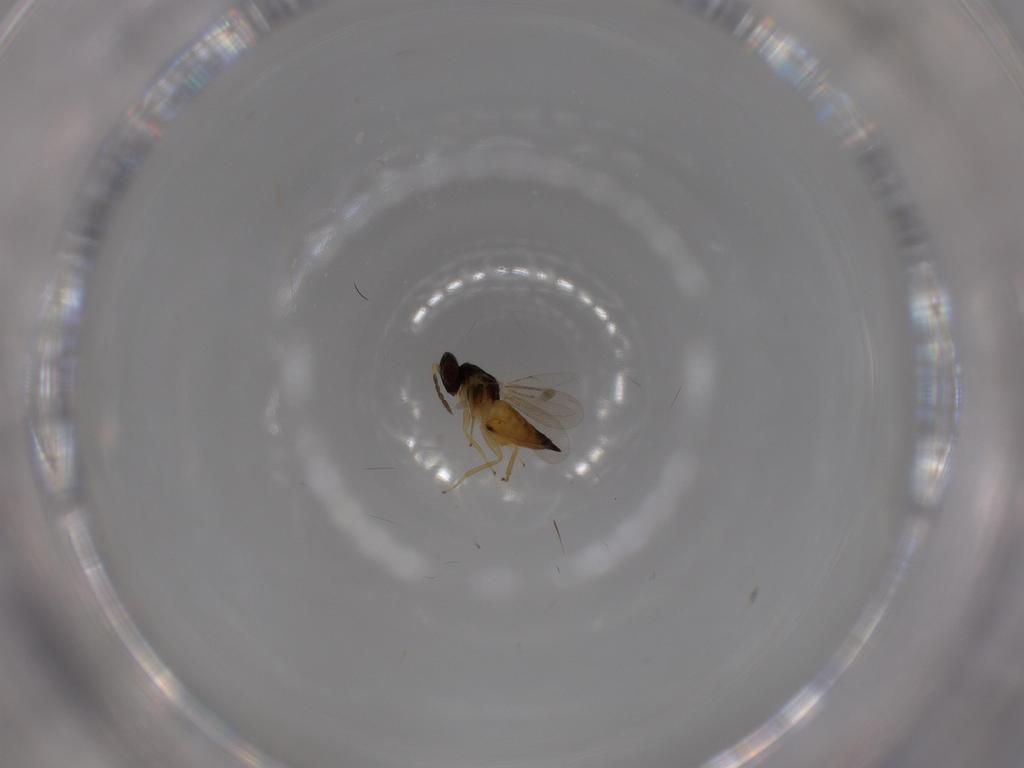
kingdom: Animalia
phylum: Arthropoda
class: Insecta
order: Hymenoptera
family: Eulophidae
